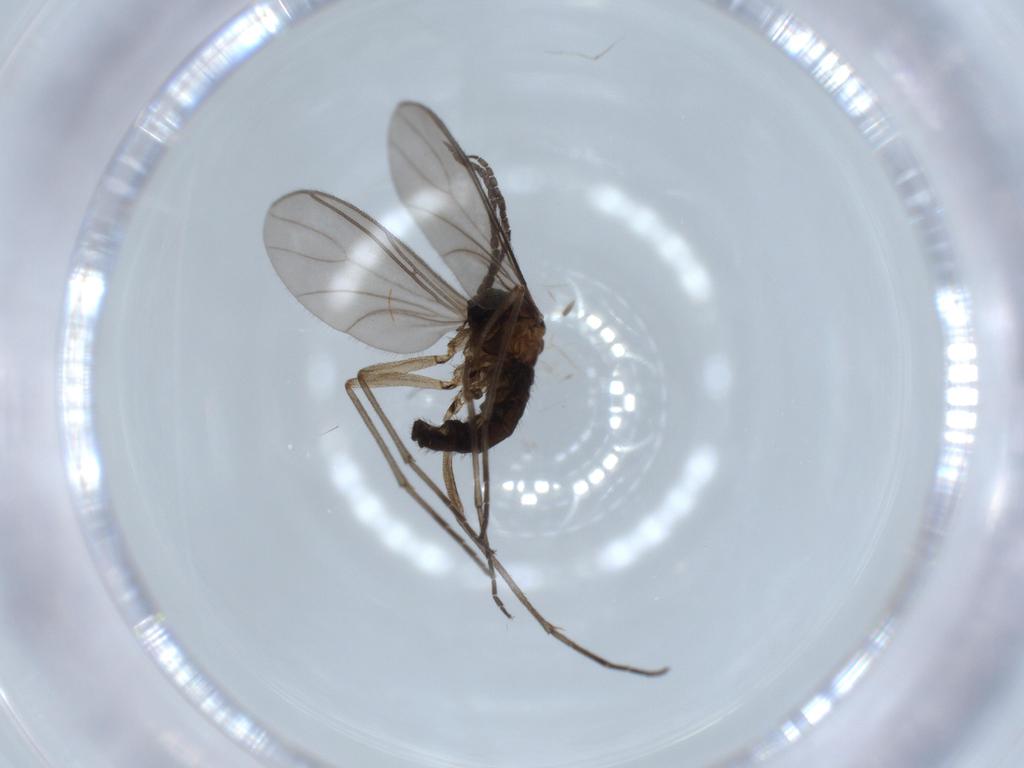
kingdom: Animalia
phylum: Arthropoda
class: Insecta
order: Diptera
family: Sciaridae
